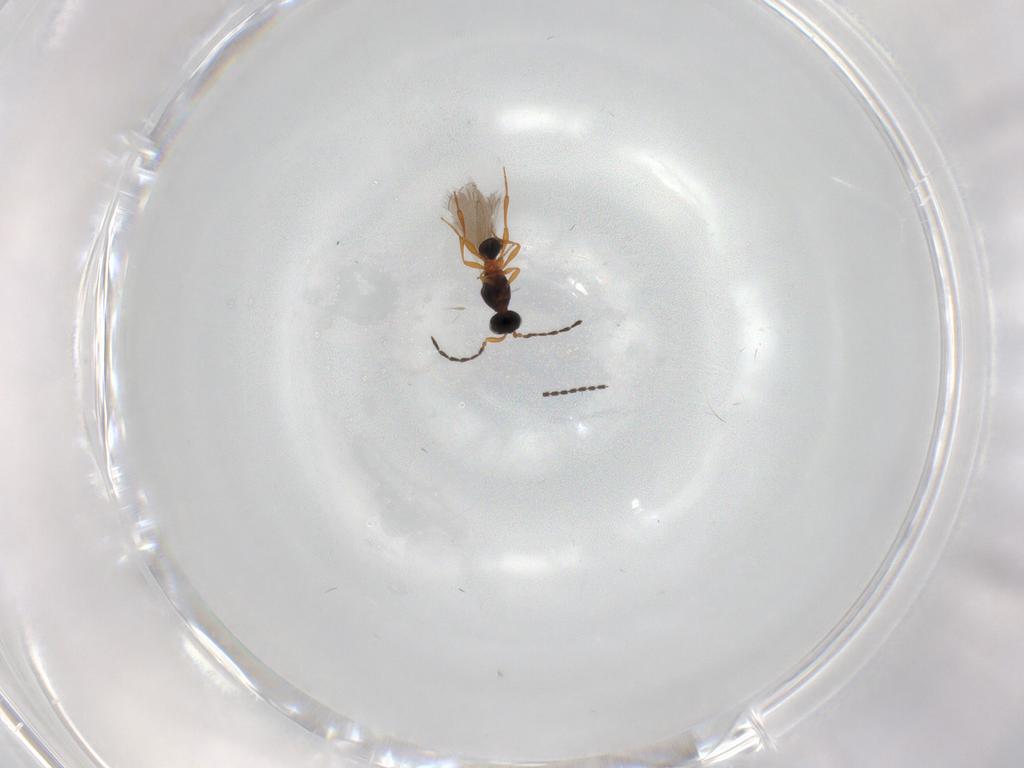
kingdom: Animalia
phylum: Arthropoda
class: Insecta
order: Hymenoptera
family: Platygastridae
